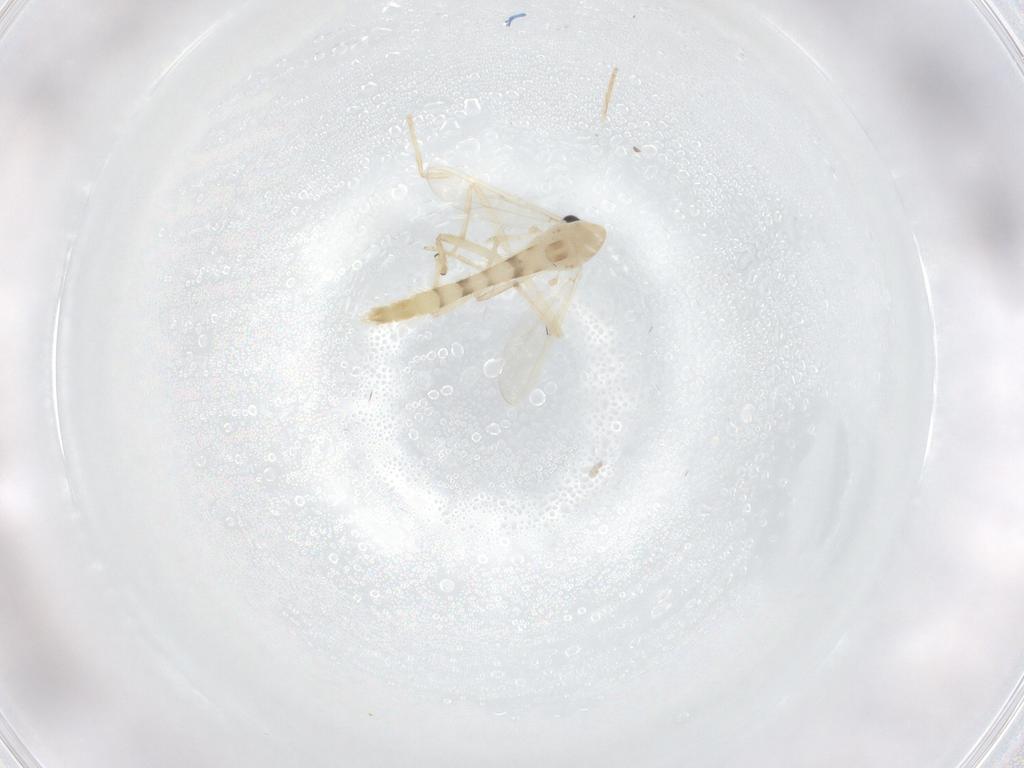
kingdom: Animalia
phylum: Arthropoda
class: Insecta
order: Diptera
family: Chironomidae
